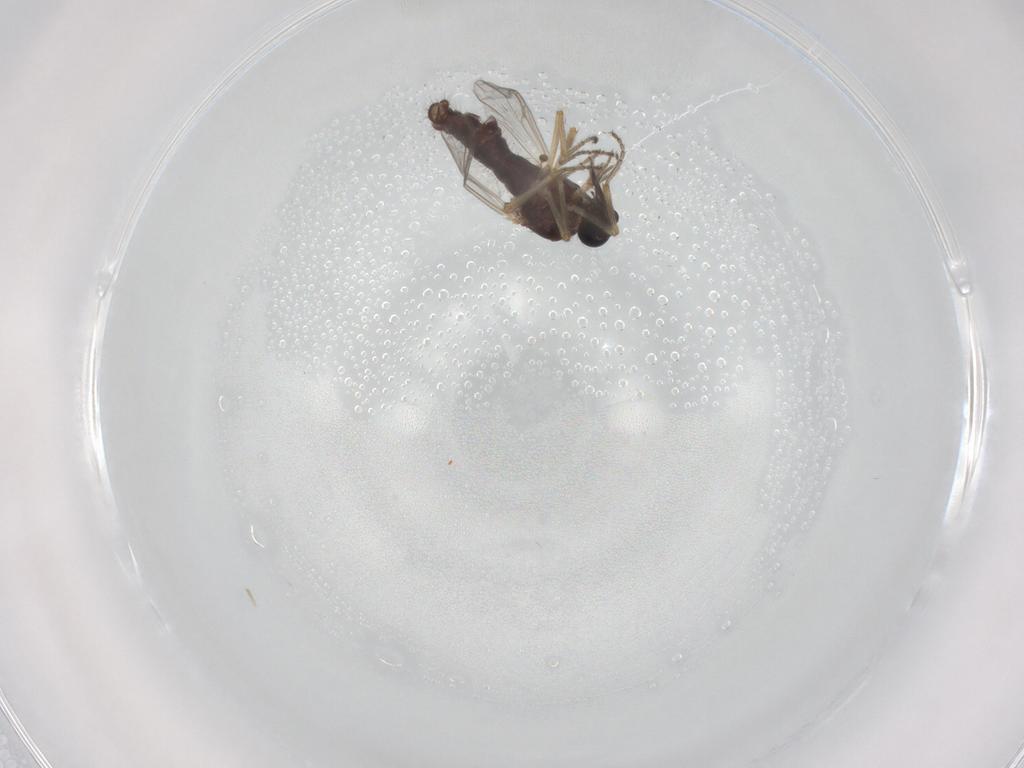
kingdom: Animalia
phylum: Arthropoda
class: Insecta
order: Diptera
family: Ceratopogonidae
